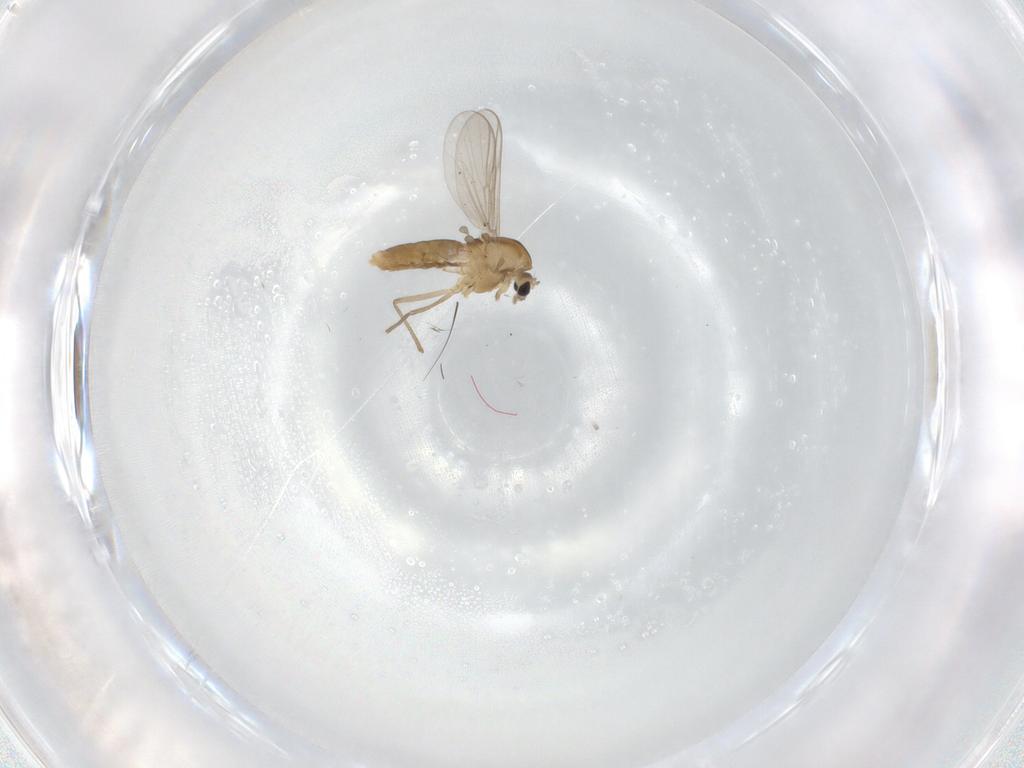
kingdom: Animalia
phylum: Arthropoda
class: Insecta
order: Diptera
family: Chironomidae
